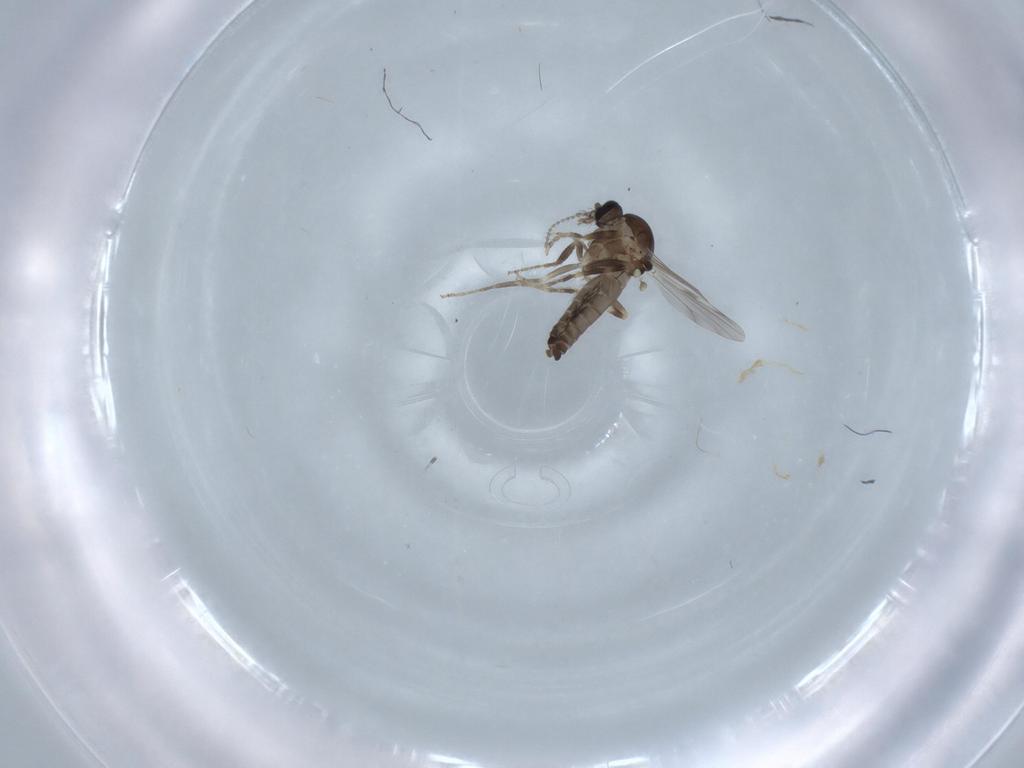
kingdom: Animalia
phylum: Arthropoda
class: Insecta
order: Diptera
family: Ceratopogonidae
